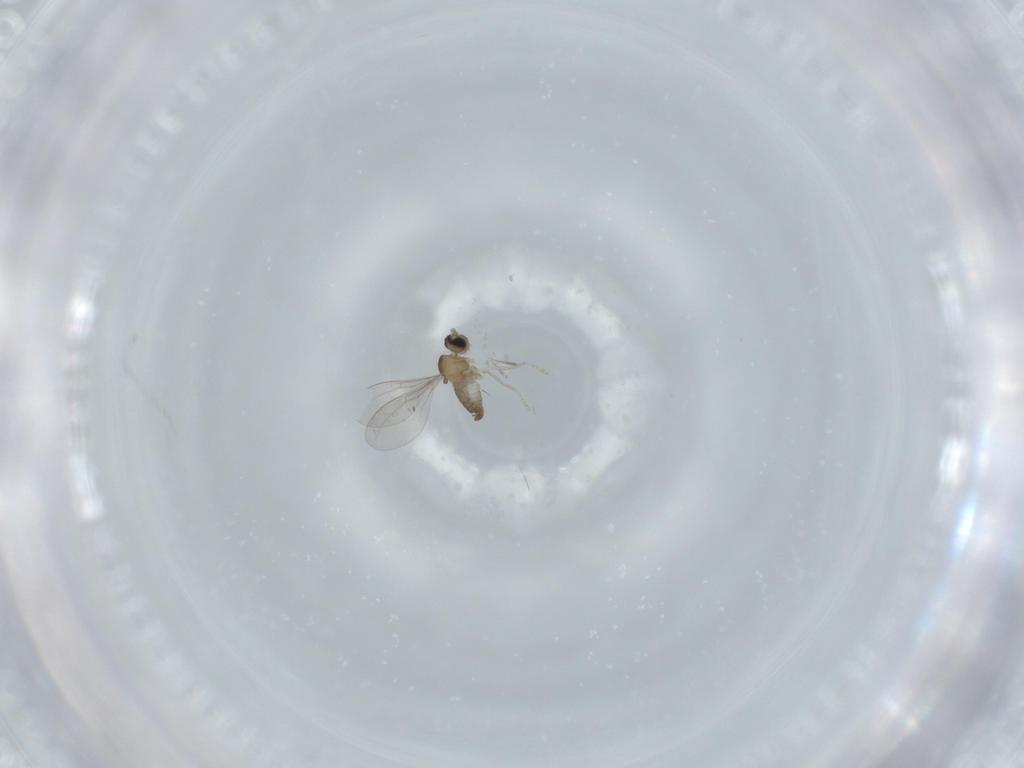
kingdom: Animalia
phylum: Arthropoda
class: Insecta
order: Diptera
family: Cecidomyiidae
